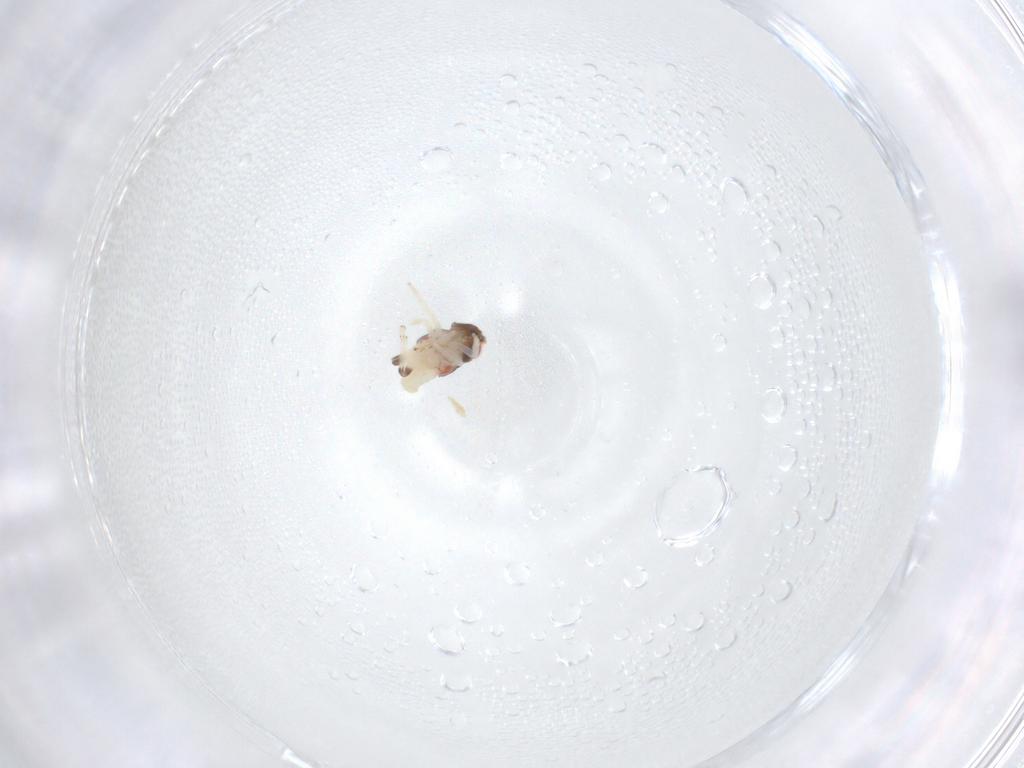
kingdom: Animalia
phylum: Arthropoda
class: Insecta
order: Hemiptera
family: Nogodinidae
